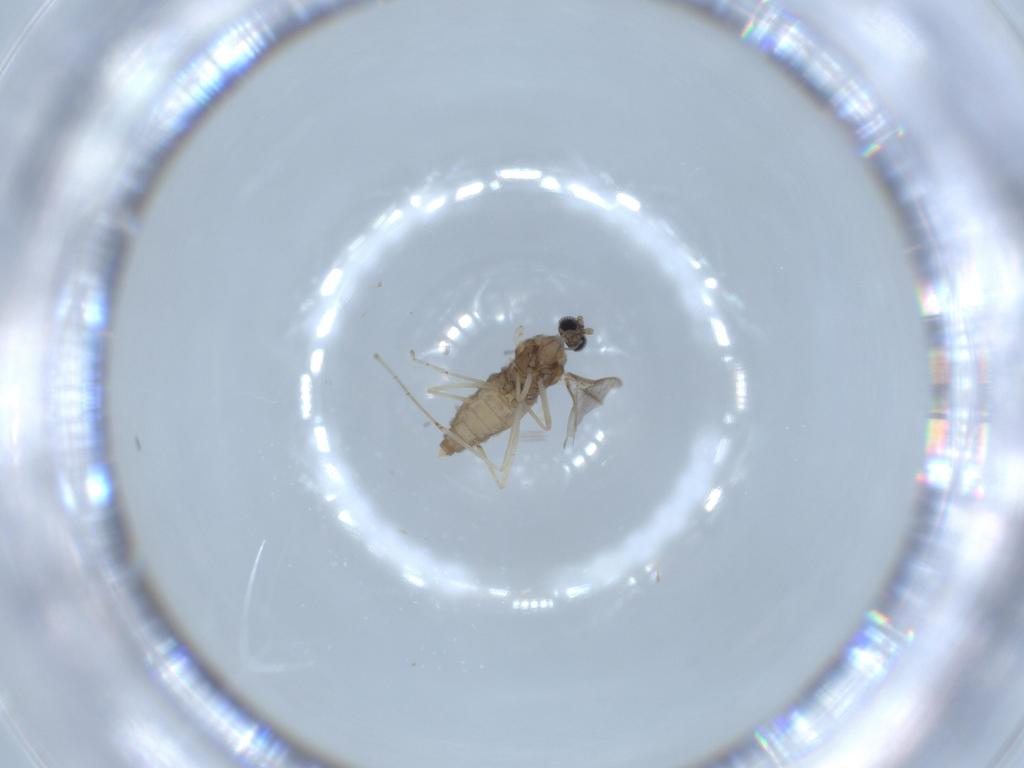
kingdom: Animalia
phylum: Arthropoda
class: Insecta
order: Diptera
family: Cecidomyiidae
